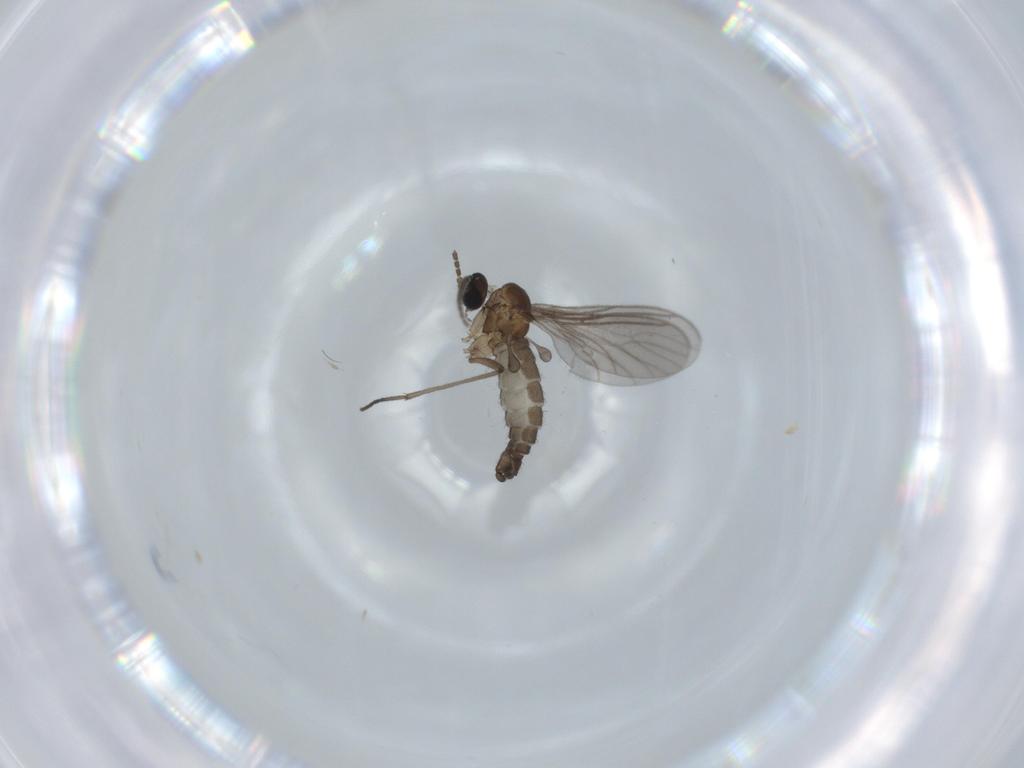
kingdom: Animalia
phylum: Arthropoda
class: Insecta
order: Diptera
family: Sciaridae
